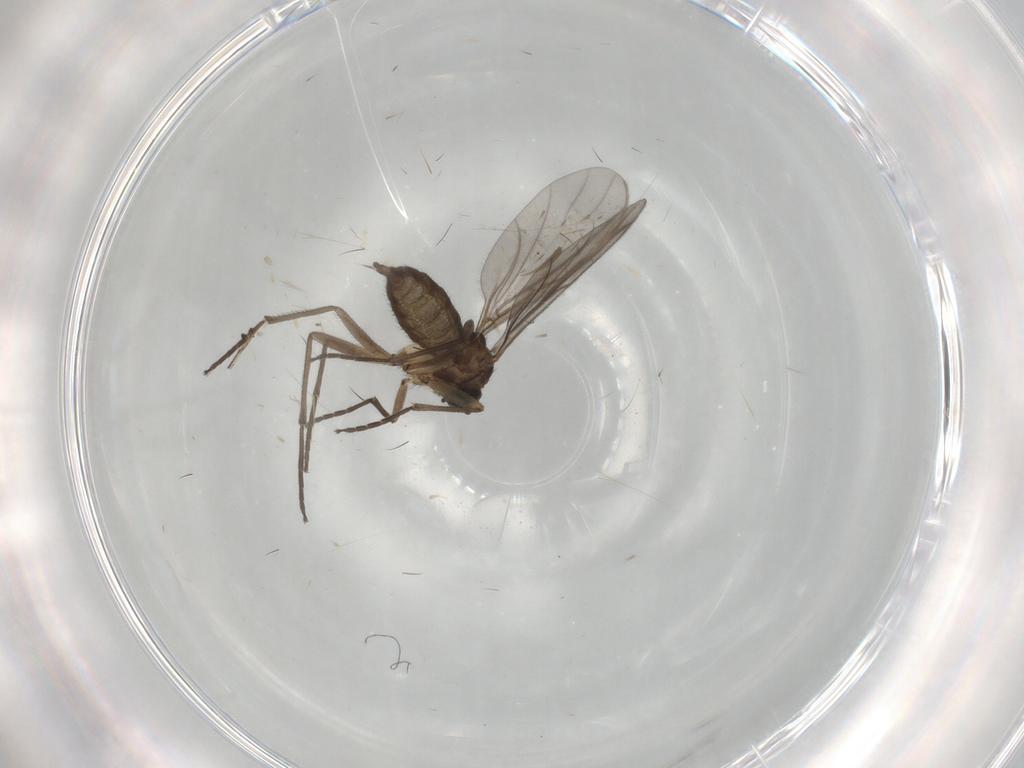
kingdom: Animalia
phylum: Arthropoda
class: Insecta
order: Diptera
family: Sciaridae
